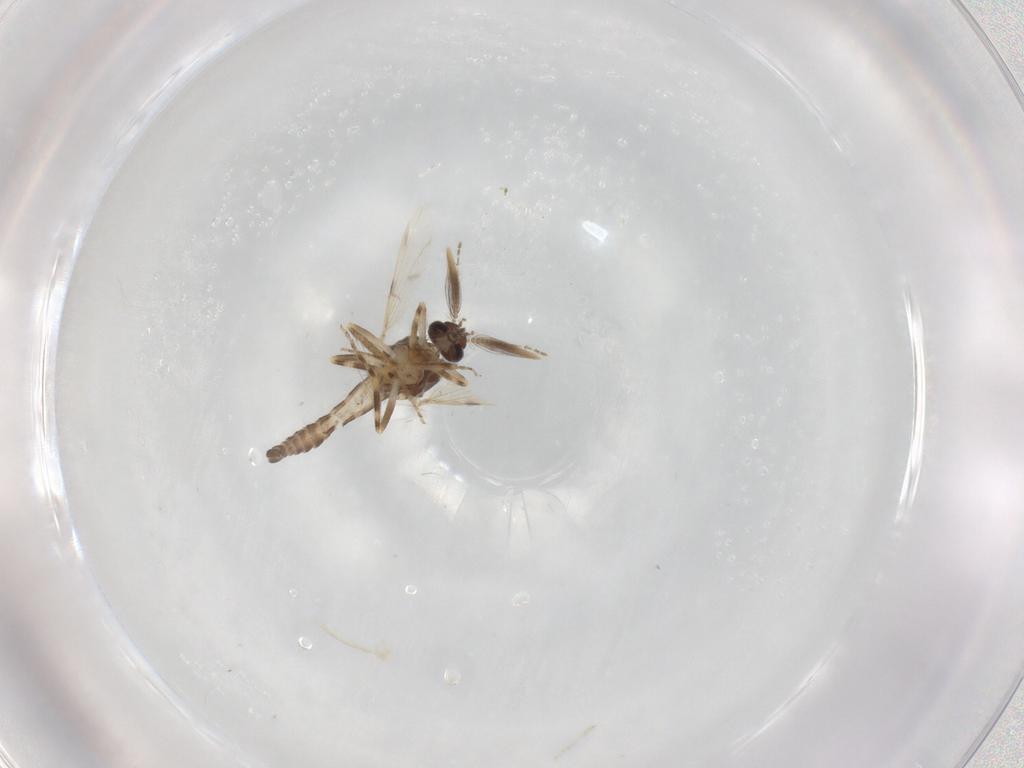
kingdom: Animalia
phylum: Arthropoda
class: Insecta
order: Diptera
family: Ceratopogonidae
